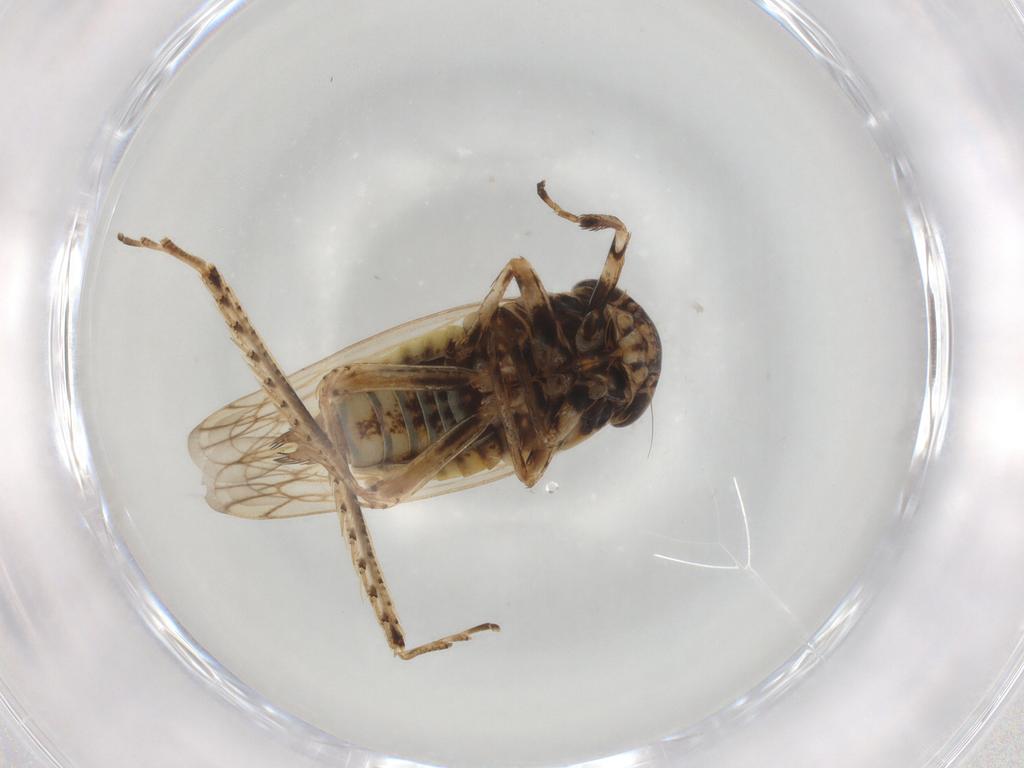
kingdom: Animalia
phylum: Arthropoda
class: Insecta
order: Hemiptera
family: Cicadellidae
